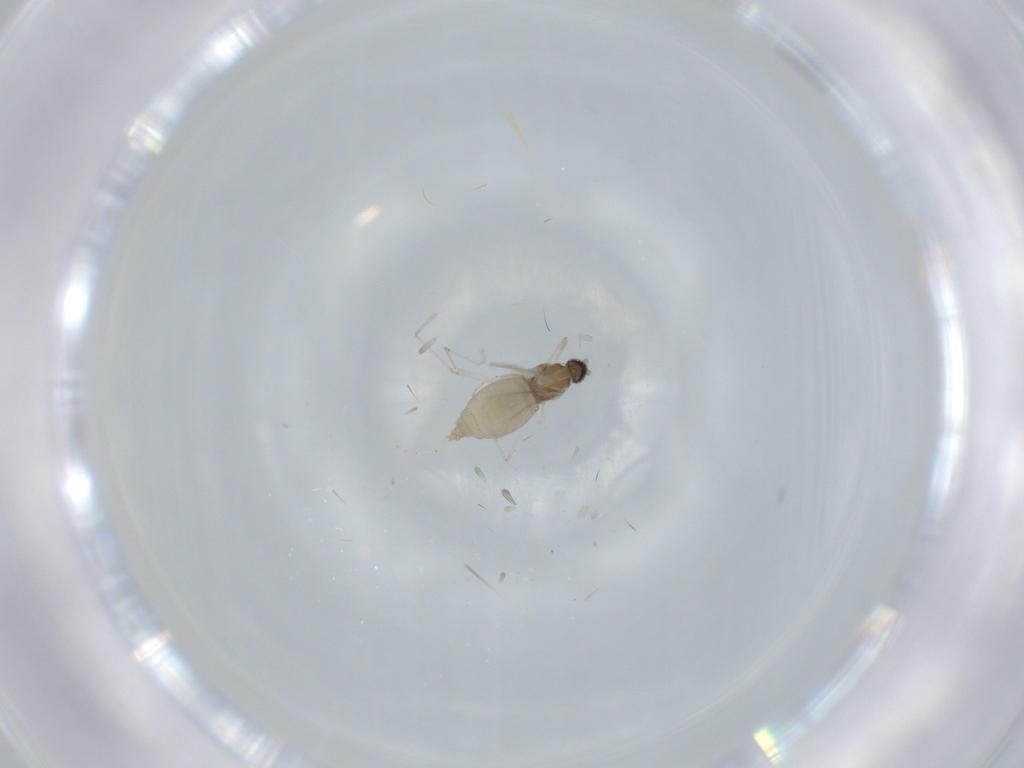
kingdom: Animalia
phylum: Arthropoda
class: Insecta
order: Diptera
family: Cecidomyiidae
